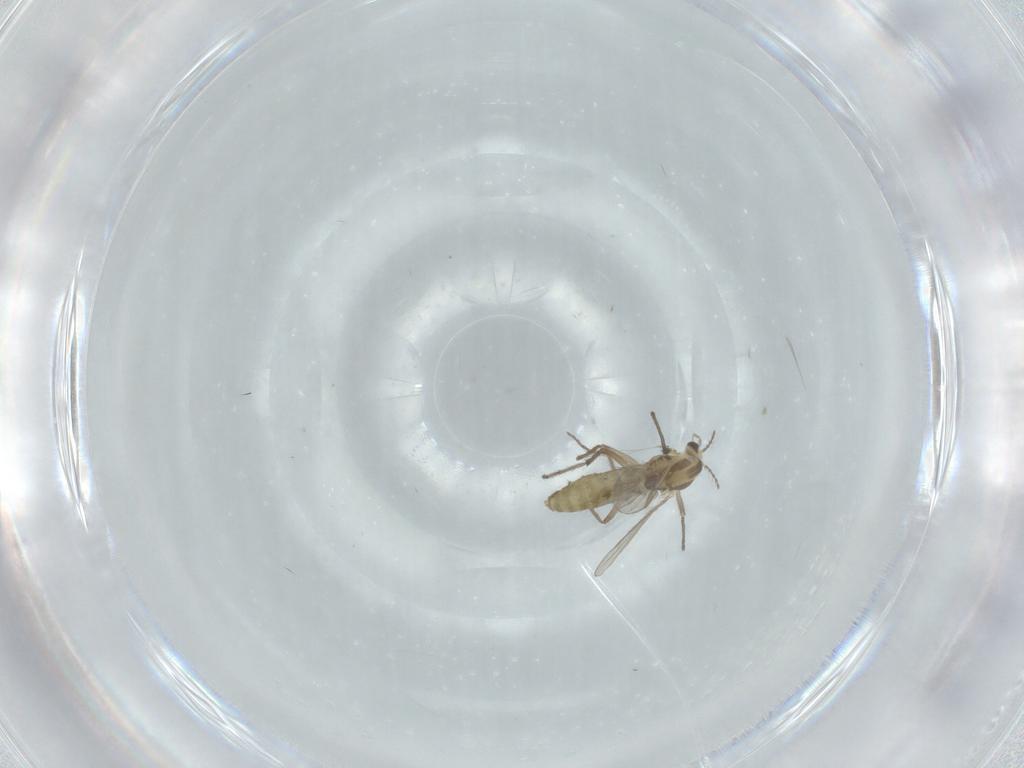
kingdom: Animalia
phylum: Arthropoda
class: Insecta
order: Diptera
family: Chironomidae
